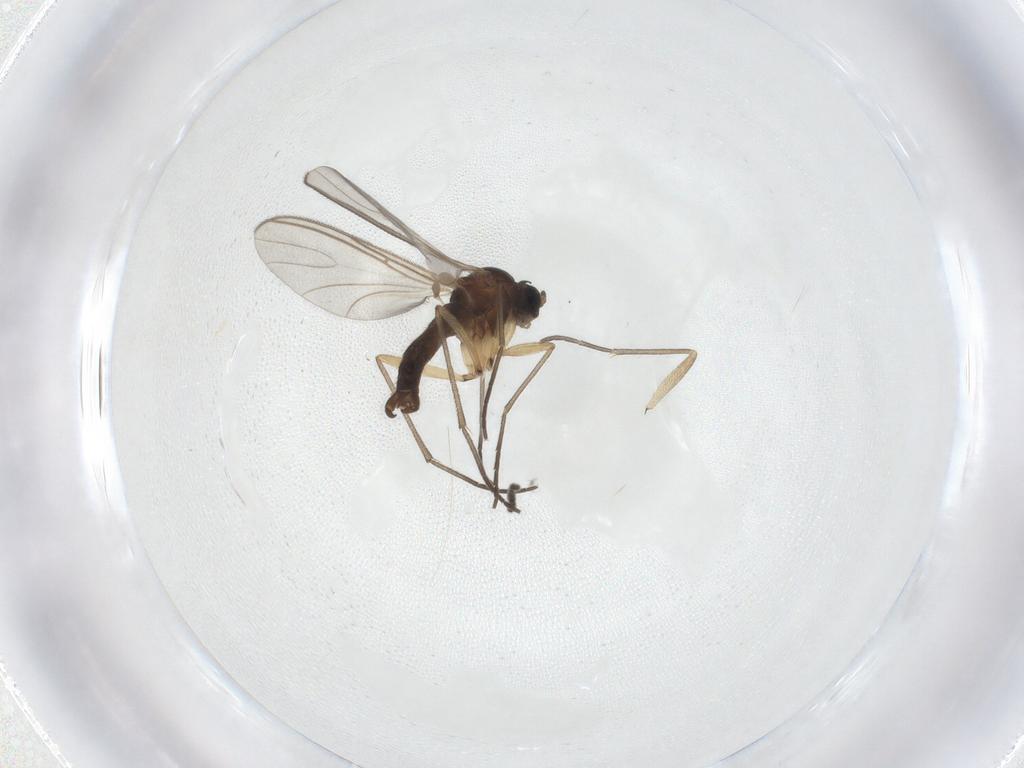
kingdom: Animalia
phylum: Arthropoda
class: Insecta
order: Diptera
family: Sciaridae
